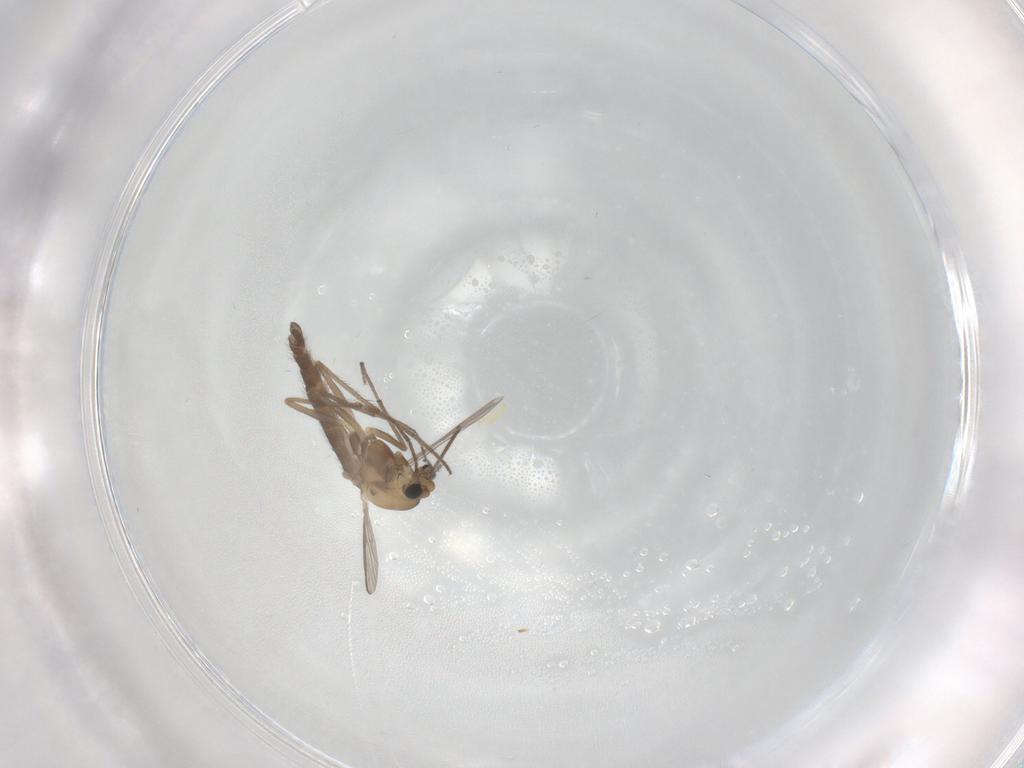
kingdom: Animalia
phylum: Arthropoda
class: Insecta
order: Diptera
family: Chironomidae
